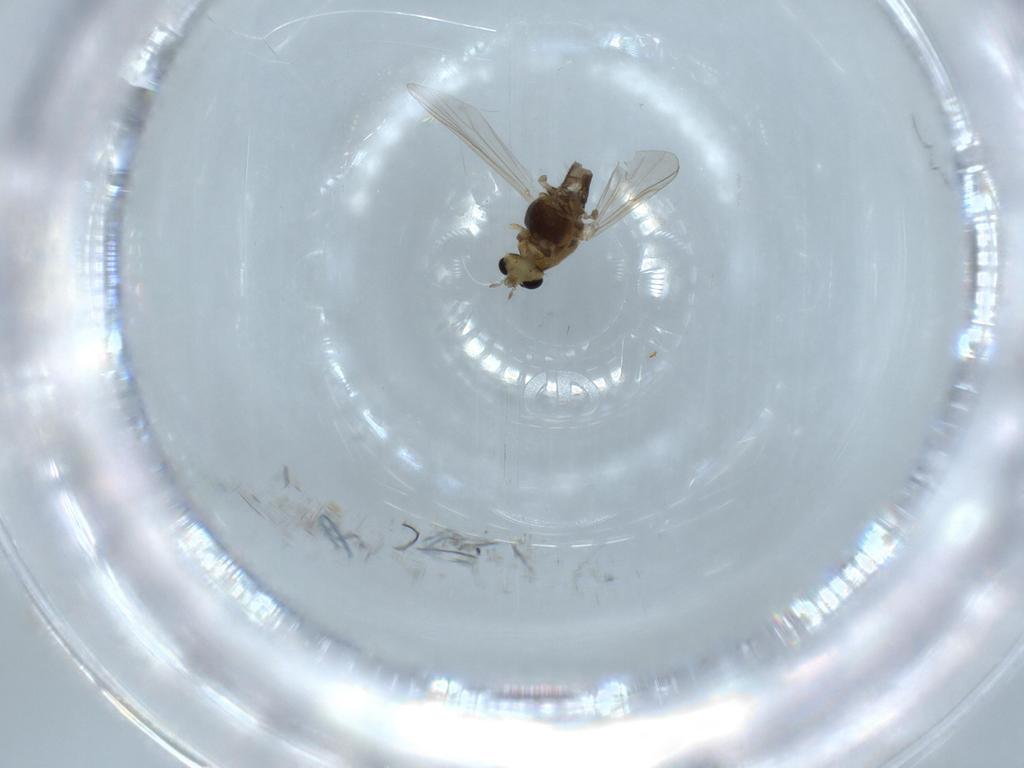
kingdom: Animalia
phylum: Arthropoda
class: Insecta
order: Diptera
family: Chironomidae
